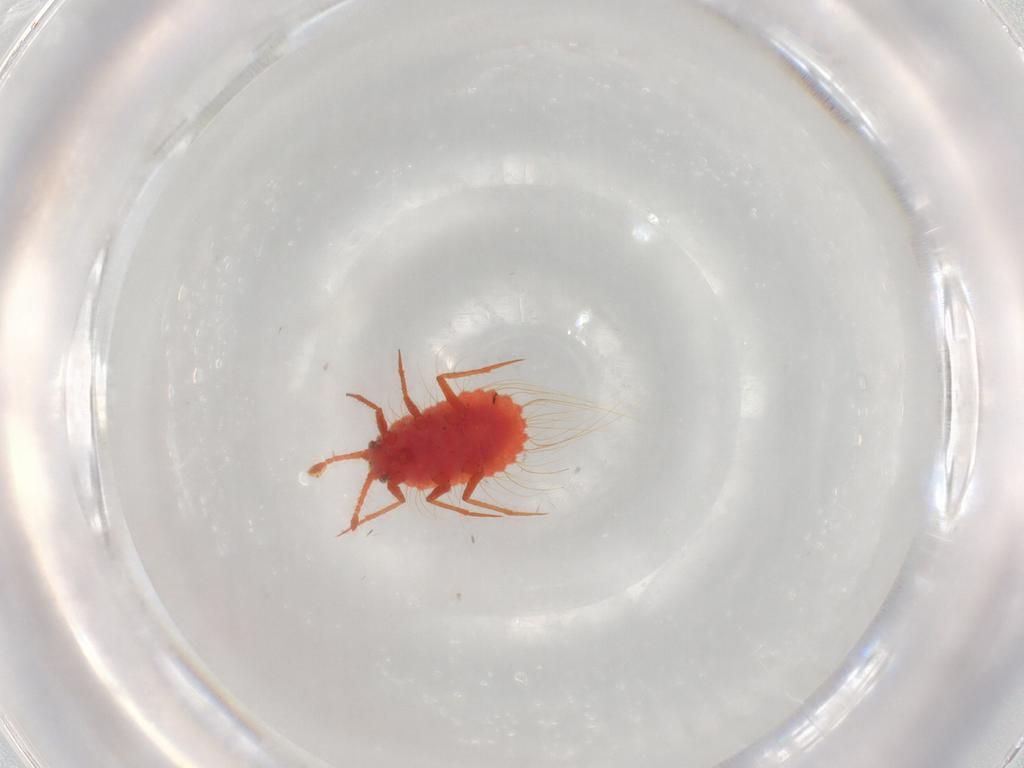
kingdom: Animalia
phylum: Arthropoda
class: Insecta
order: Hemiptera
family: Monophlebidae
